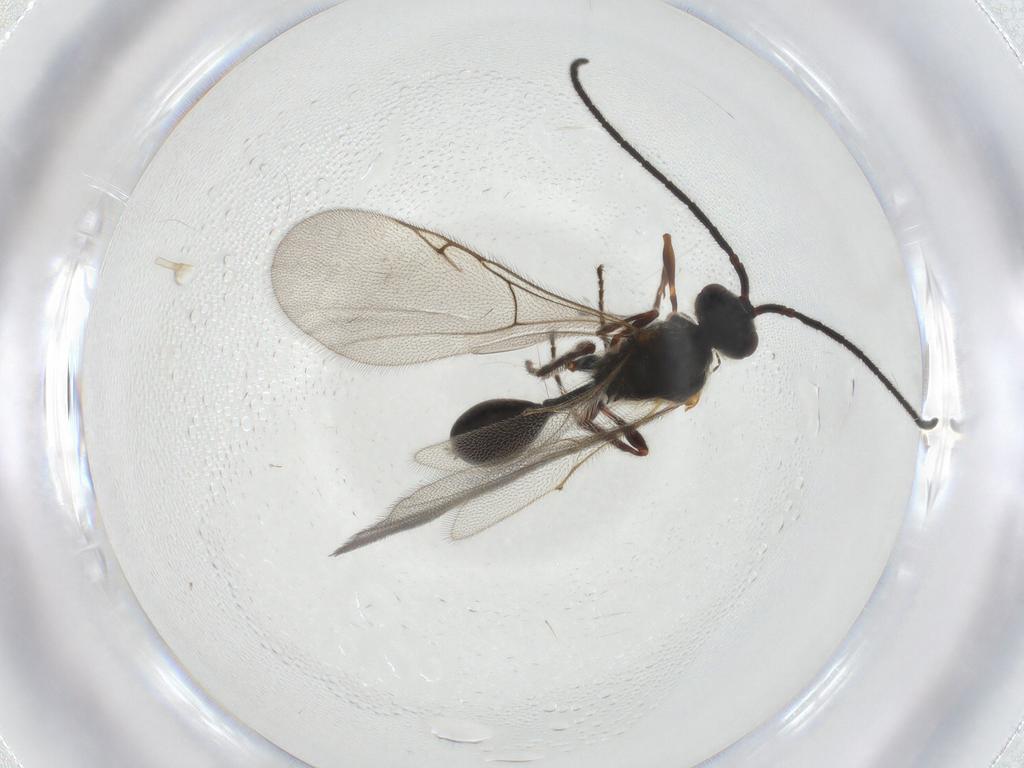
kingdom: Animalia
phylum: Arthropoda
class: Insecta
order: Hymenoptera
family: Diapriidae
